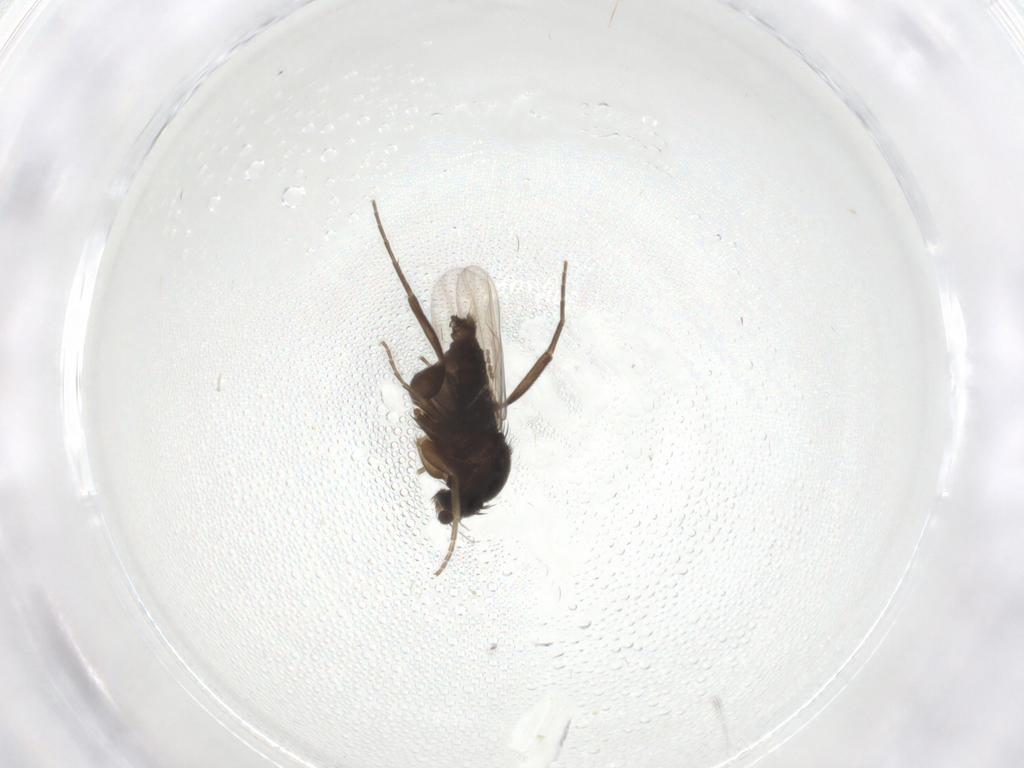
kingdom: Animalia
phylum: Arthropoda
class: Insecta
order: Diptera
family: Phoridae
